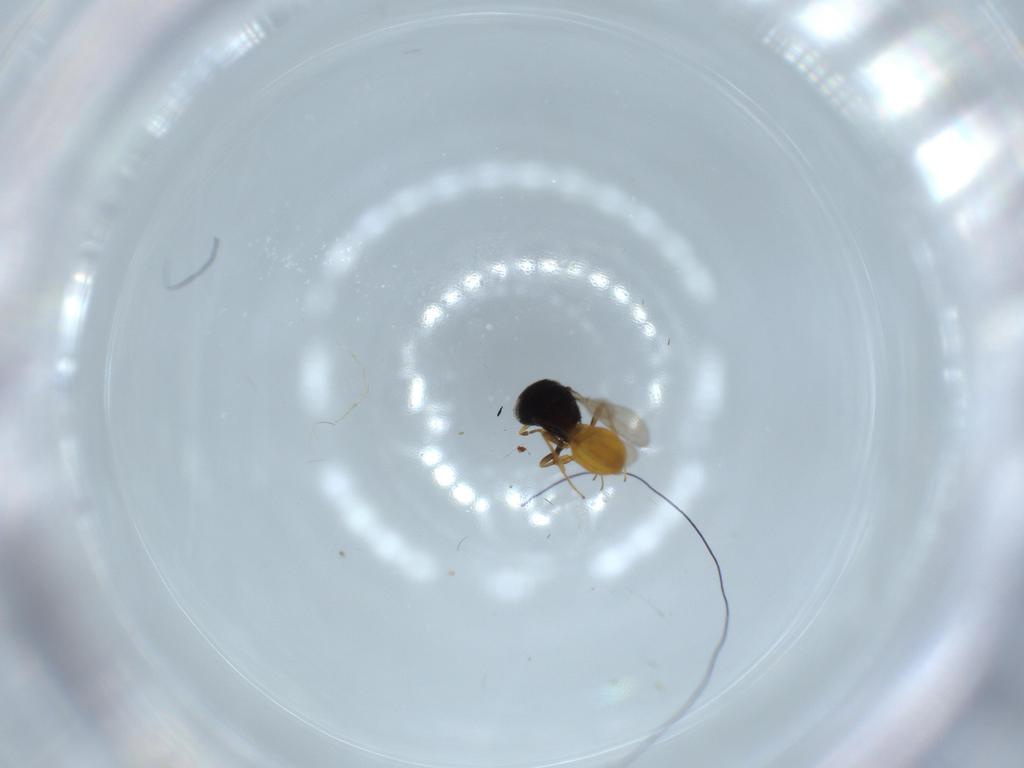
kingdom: Animalia
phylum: Arthropoda
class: Insecta
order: Hymenoptera
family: Scelionidae
